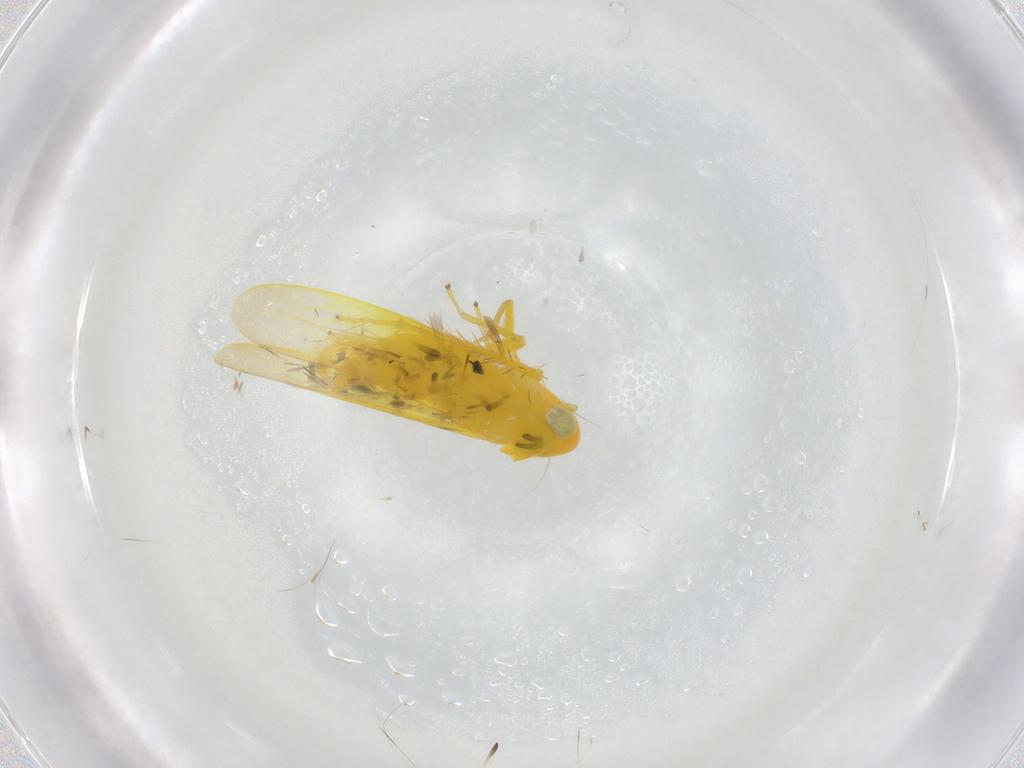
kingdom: Animalia
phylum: Arthropoda
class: Insecta
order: Hemiptera
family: Cicadellidae
